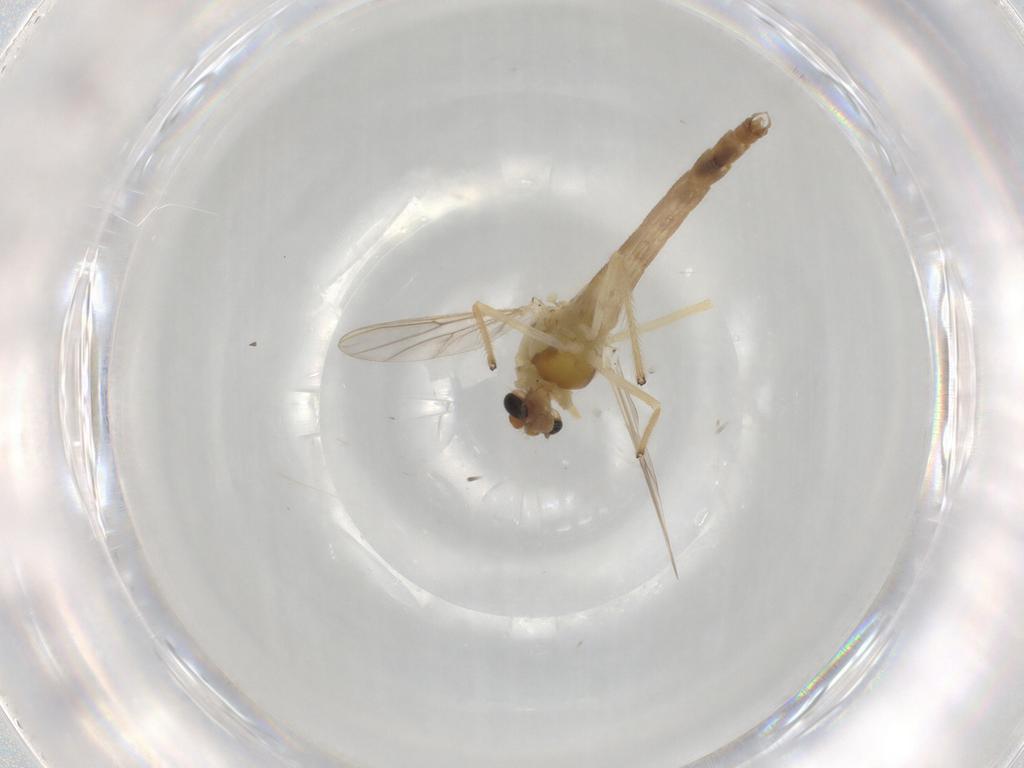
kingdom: Animalia
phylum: Arthropoda
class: Insecta
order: Diptera
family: Chironomidae
